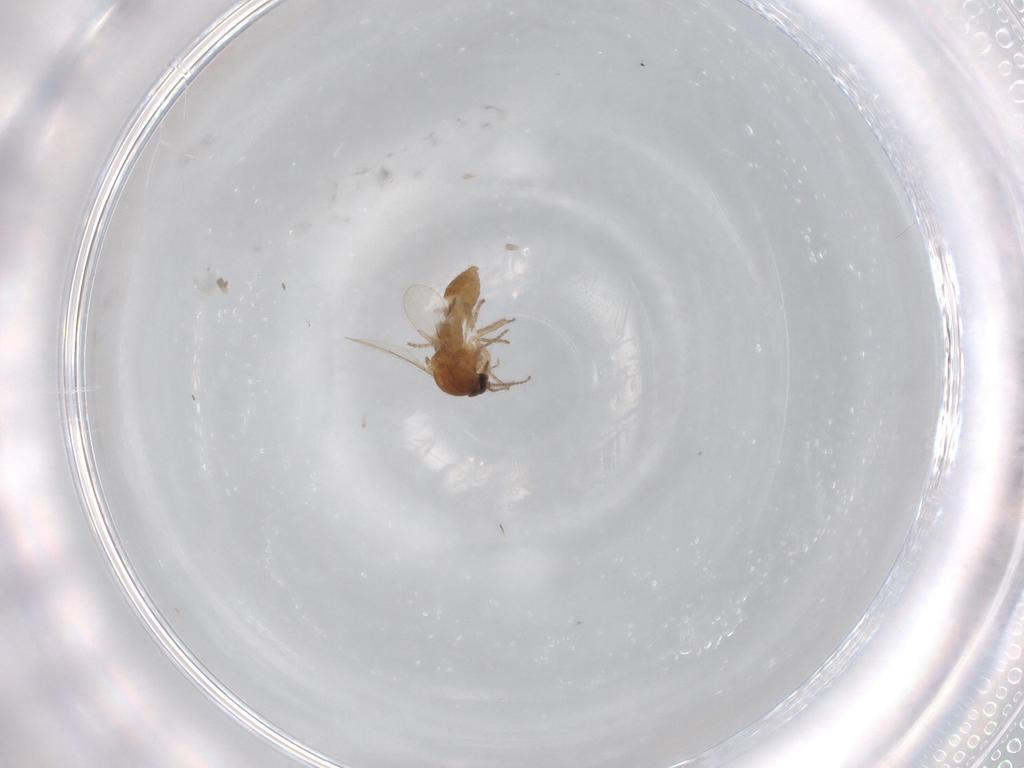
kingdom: Animalia
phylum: Arthropoda
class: Insecta
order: Diptera
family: Ceratopogonidae
